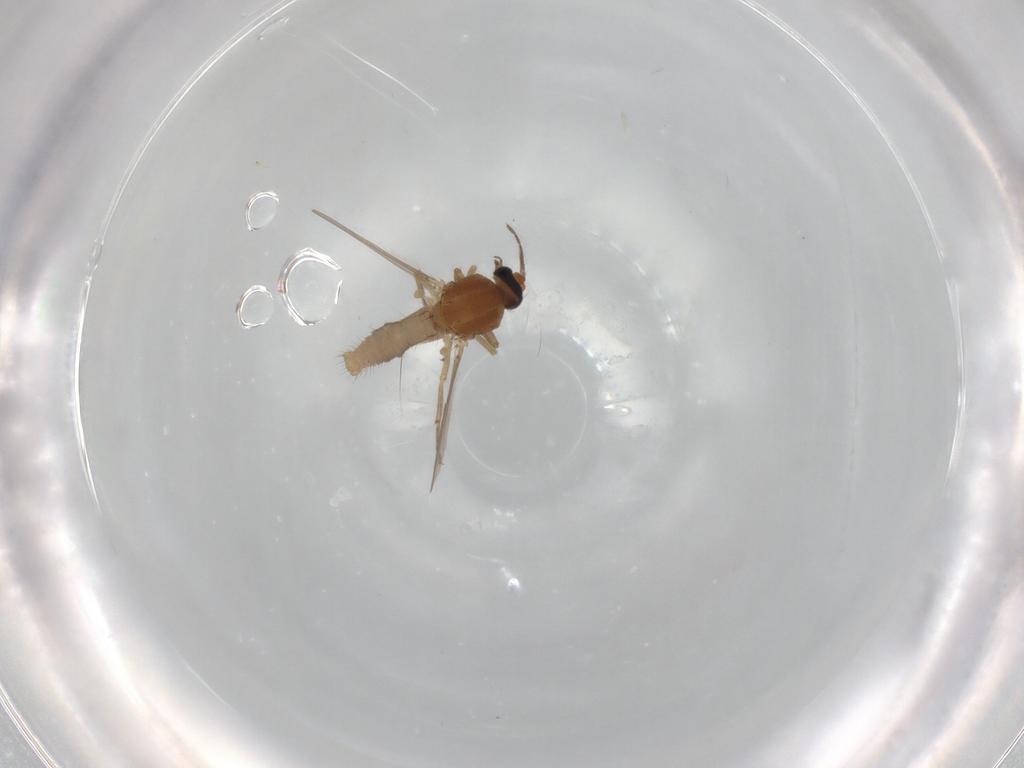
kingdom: Animalia
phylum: Arthropoda
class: Insecta
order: Diptera
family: Ceratopogonidae
